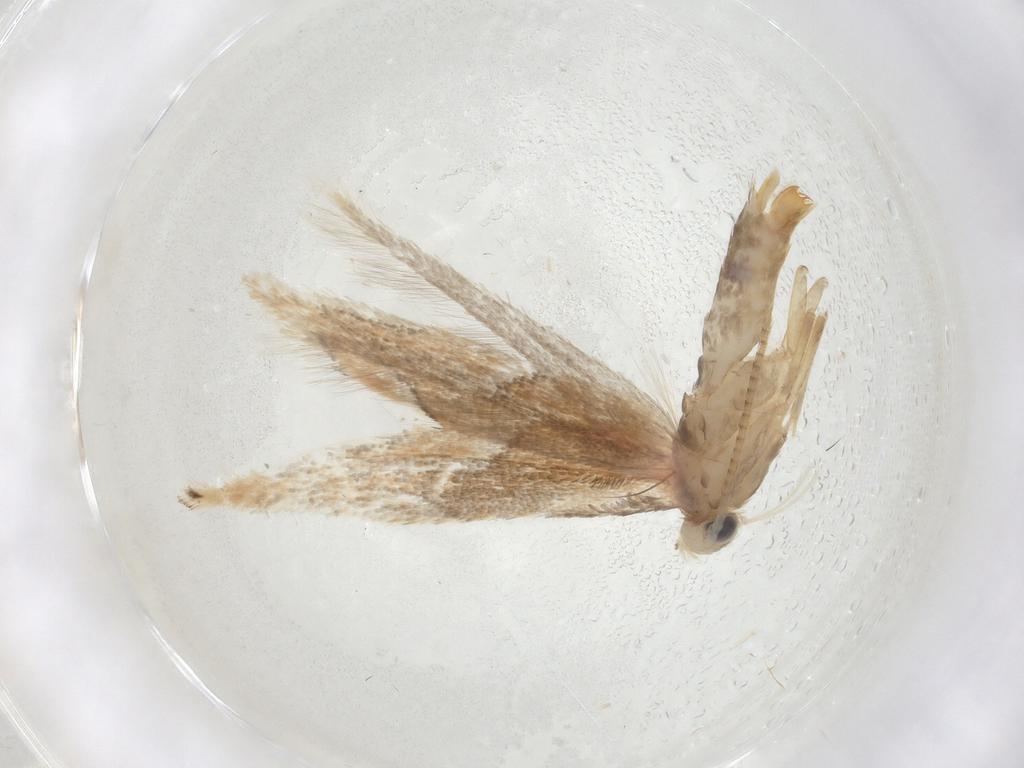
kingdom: Animalia
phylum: Arthropoda
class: Insecta
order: Lepidoptera
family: Gracillariidae
